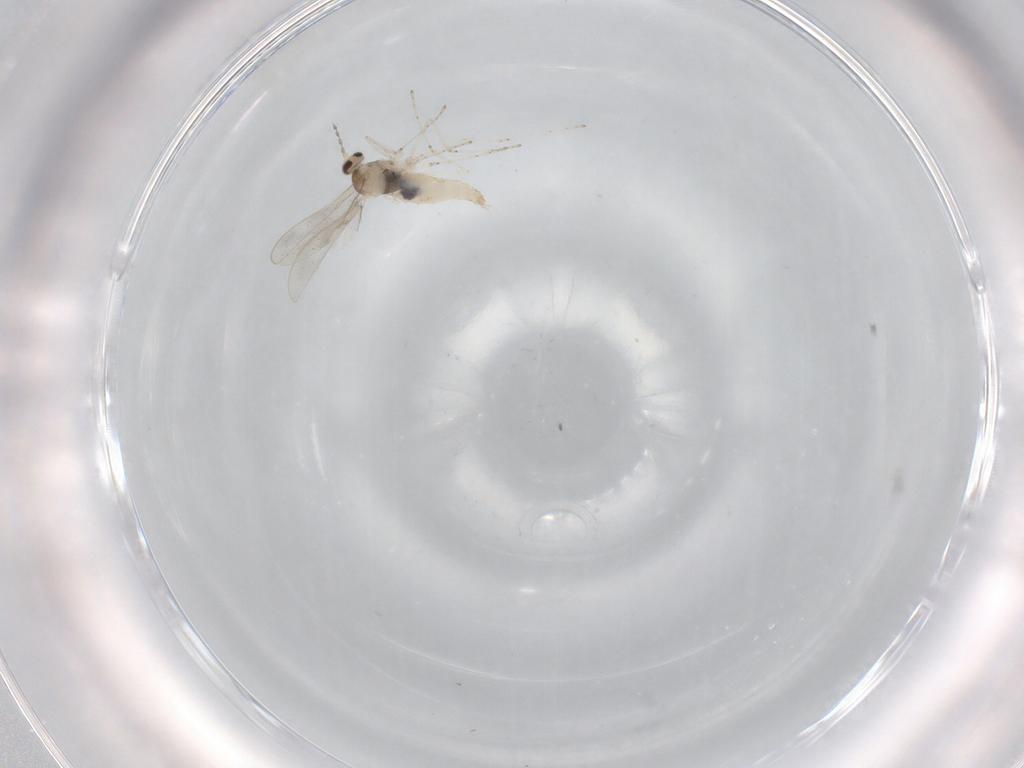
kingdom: Animalia
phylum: Arthropoda
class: Insecta
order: Diptera
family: Cecidomyiidae
